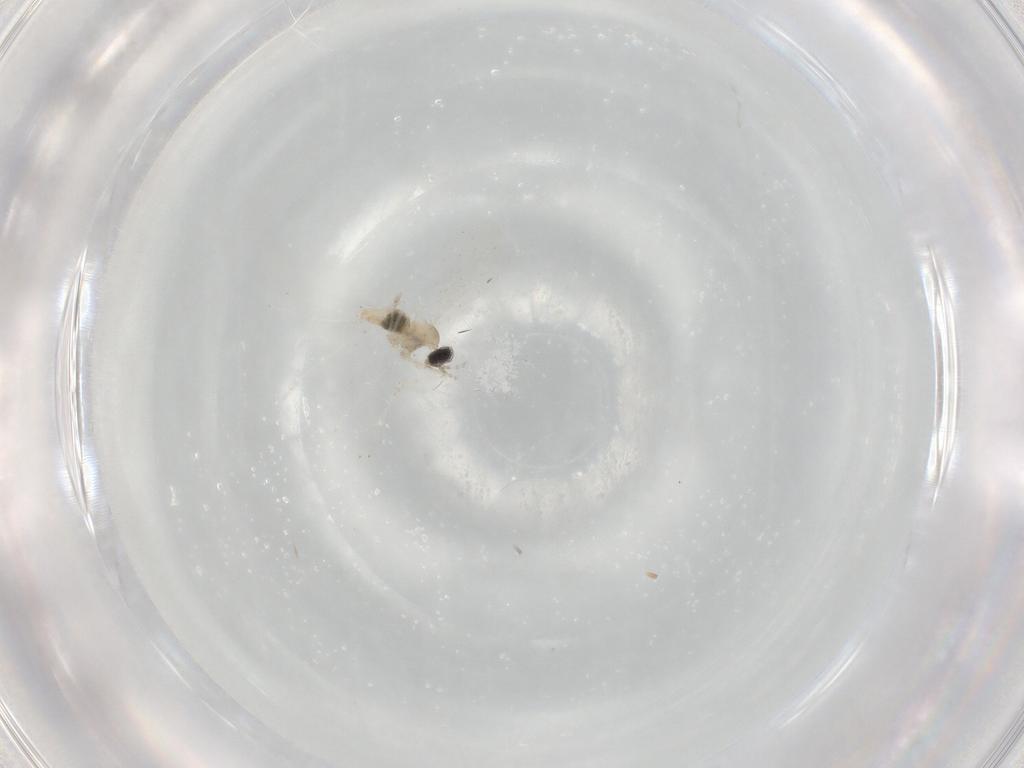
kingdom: Animalia
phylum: Arthropoda
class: Insecta
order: Diptera
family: Cecidomyiidae
